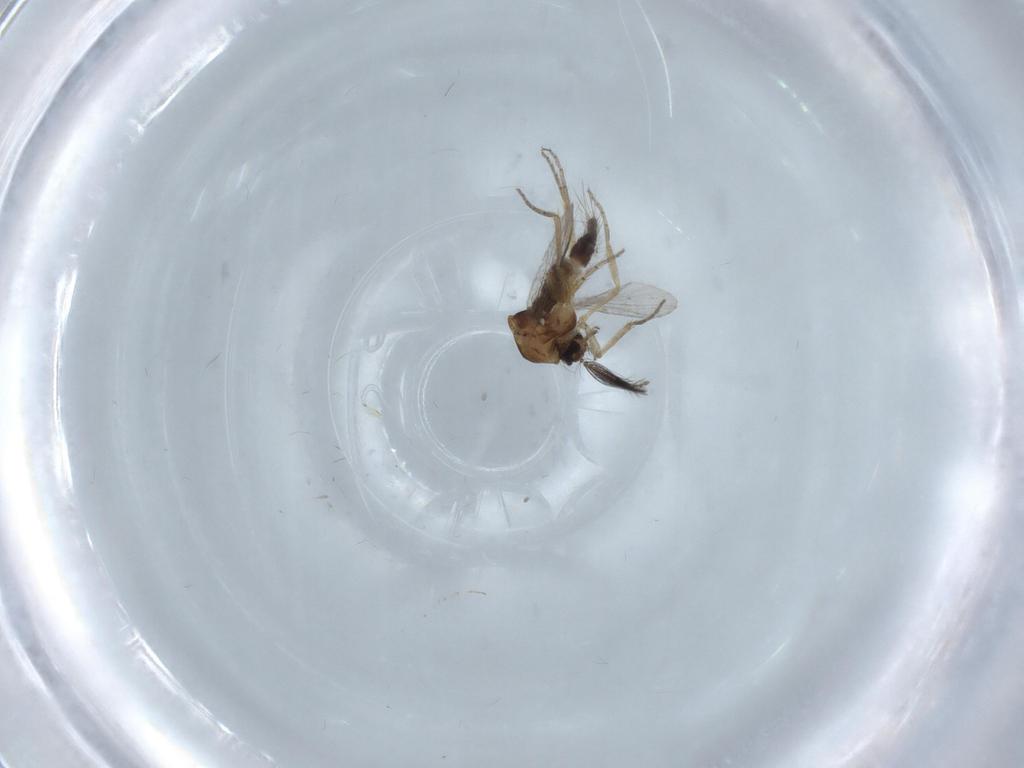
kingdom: Animalia
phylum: Arthropoda
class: Insecta
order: Diptera
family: Ceratopogonidae
